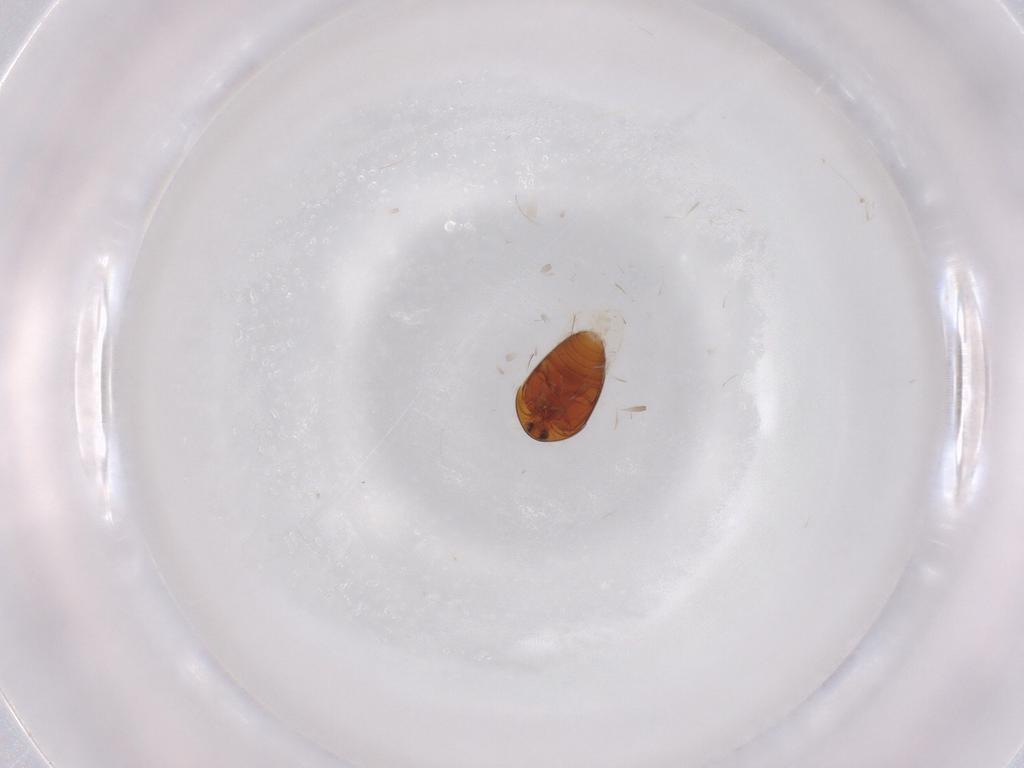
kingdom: Animalia
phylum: Arthropoda
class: Insecta
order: Coleoptera
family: Corylophidae
